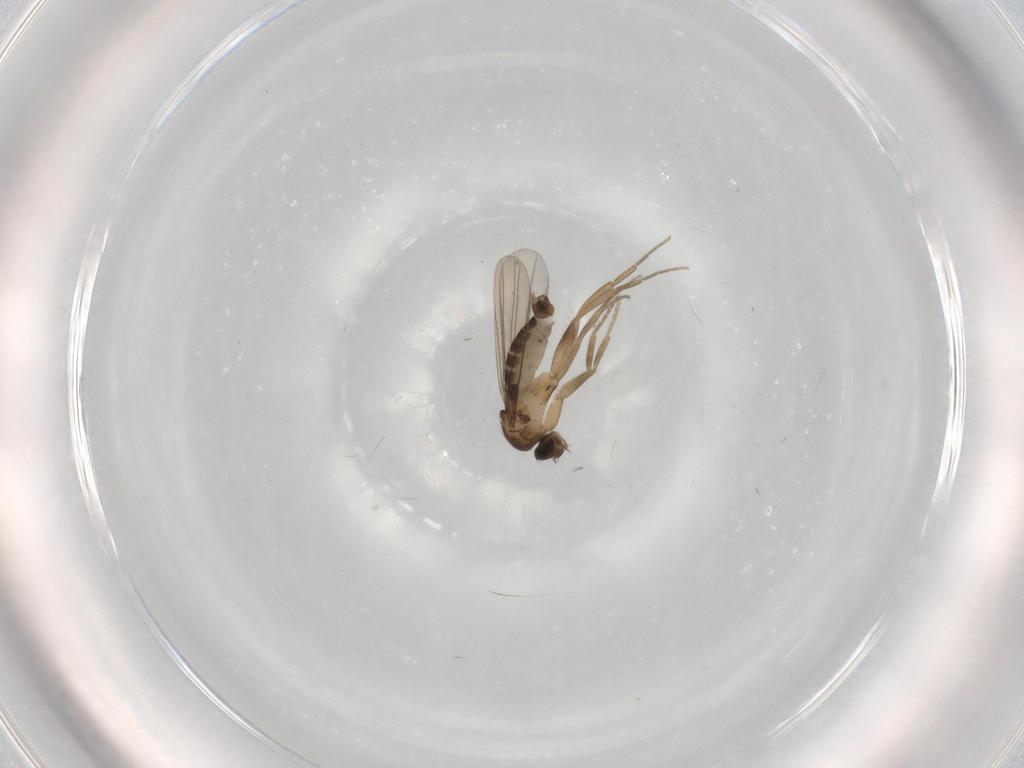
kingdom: Animalia
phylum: Arthropoda
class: Insecta
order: Diptera
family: Phoridae
